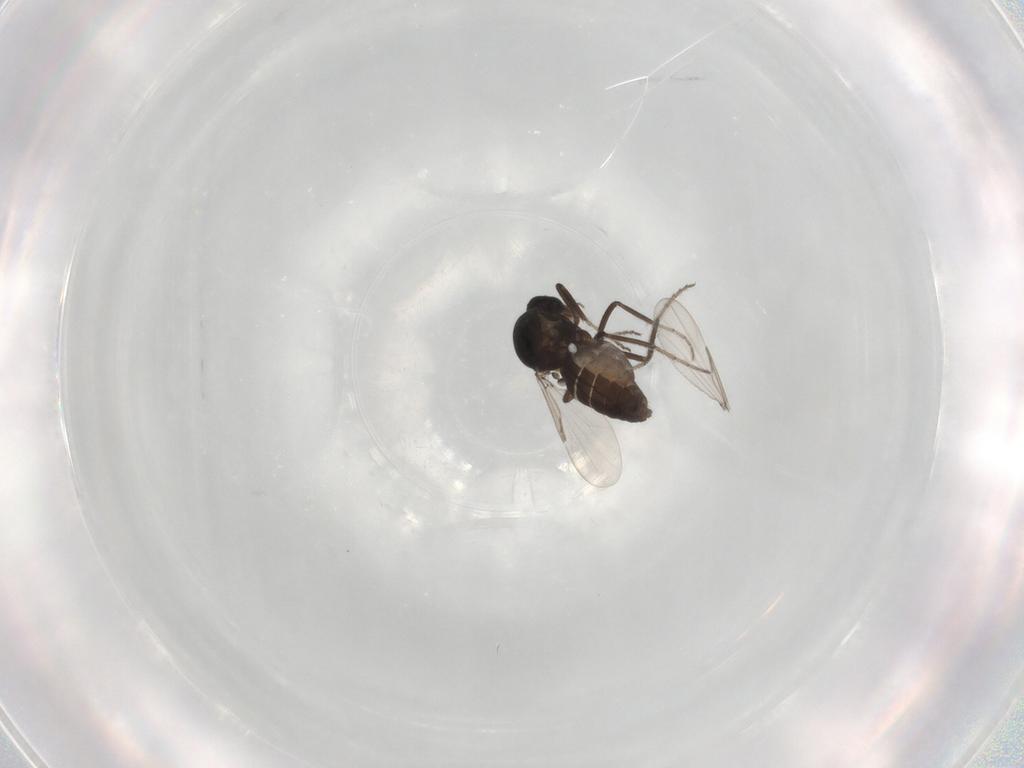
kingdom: Animalia
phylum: Arthropoda
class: Insecta
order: Diptera
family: Ceratopogonidae
